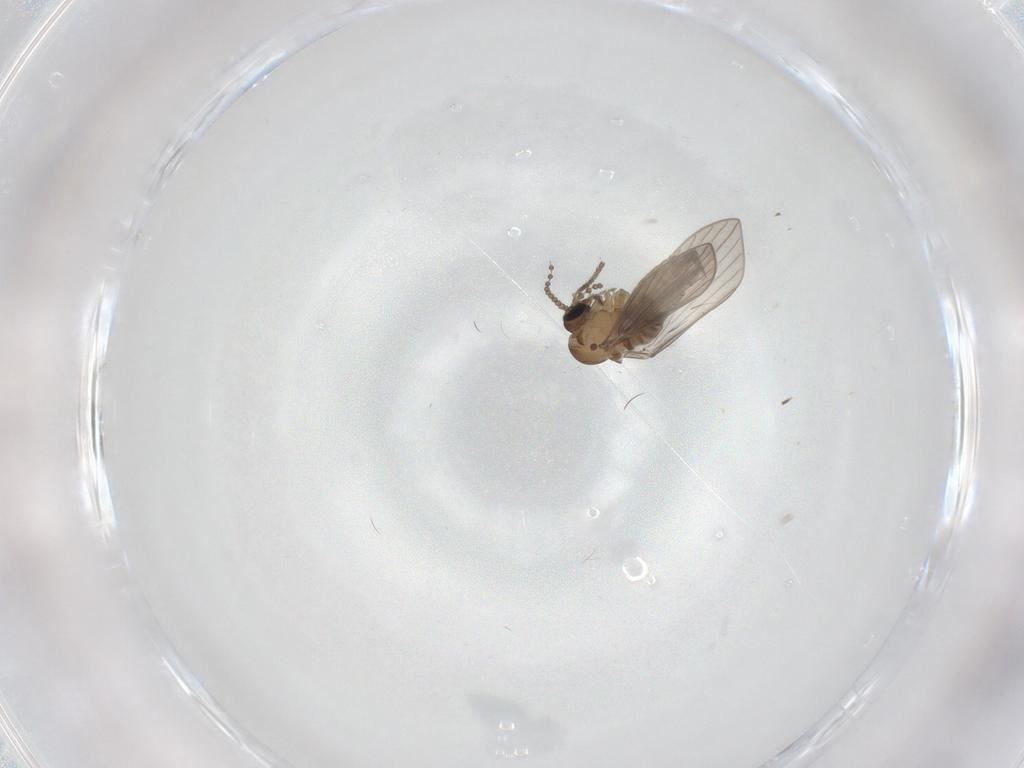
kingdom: Animalia
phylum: Arthropoda
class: Insecta
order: Diptera
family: Psychodidae
